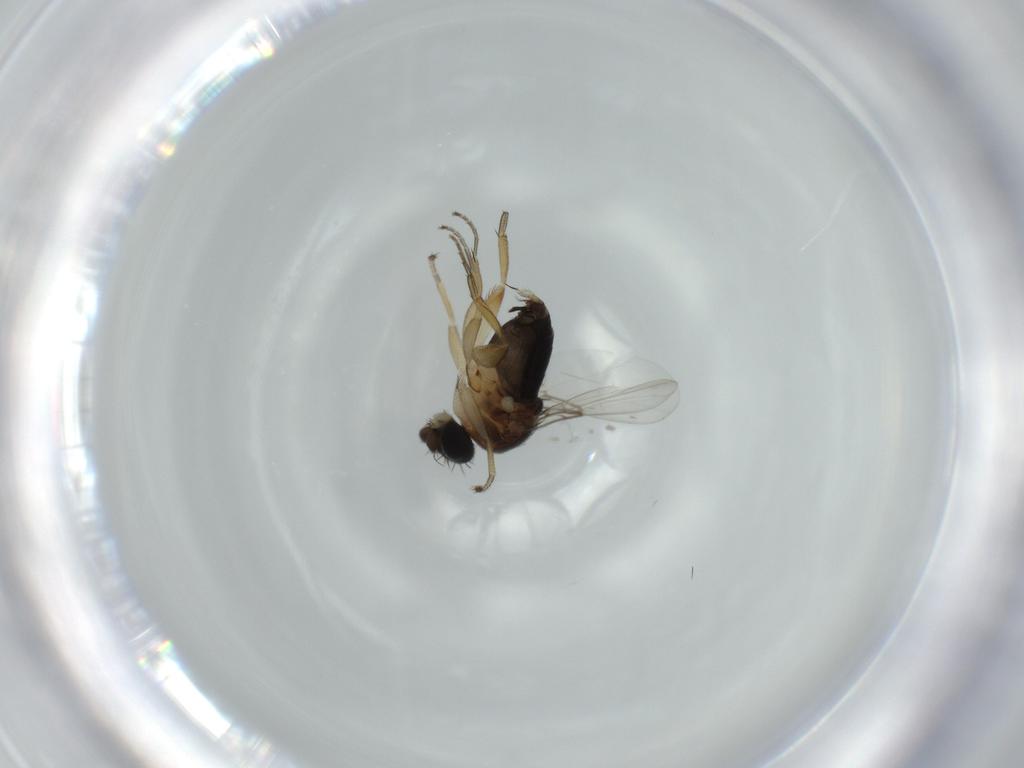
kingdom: Animalia
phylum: Arthropoda
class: Insecta
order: Diptera
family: Phoridae
